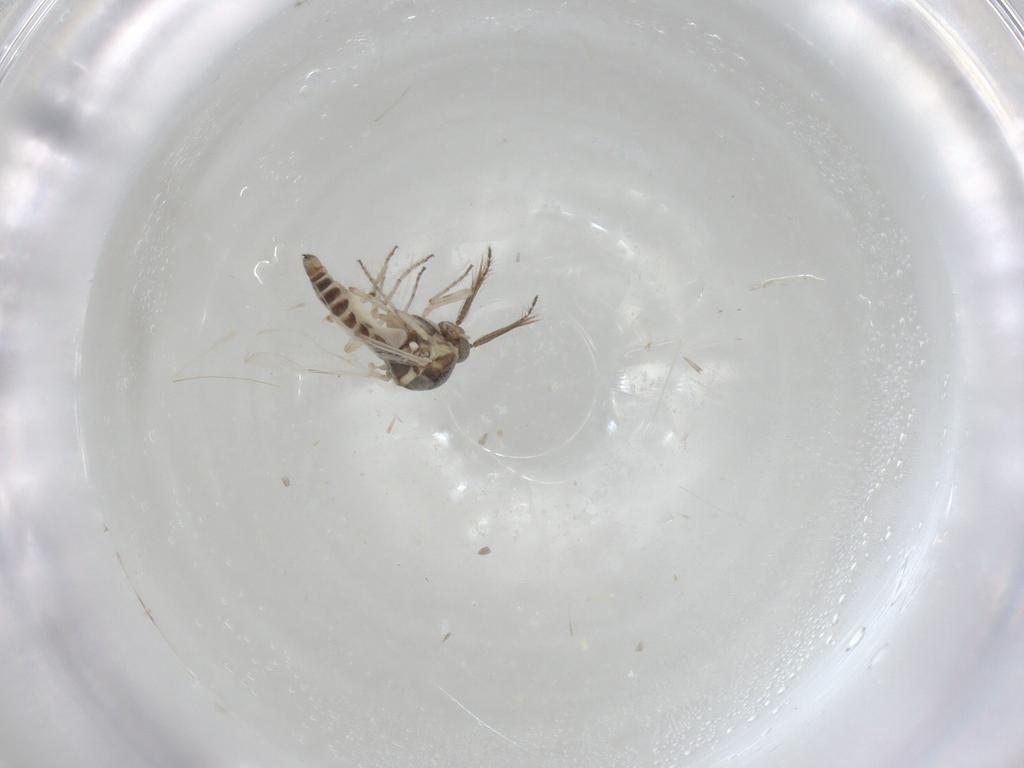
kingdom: Animalia
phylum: Arthropoda
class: Insecta
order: Diptera
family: Ceratopogonidae
